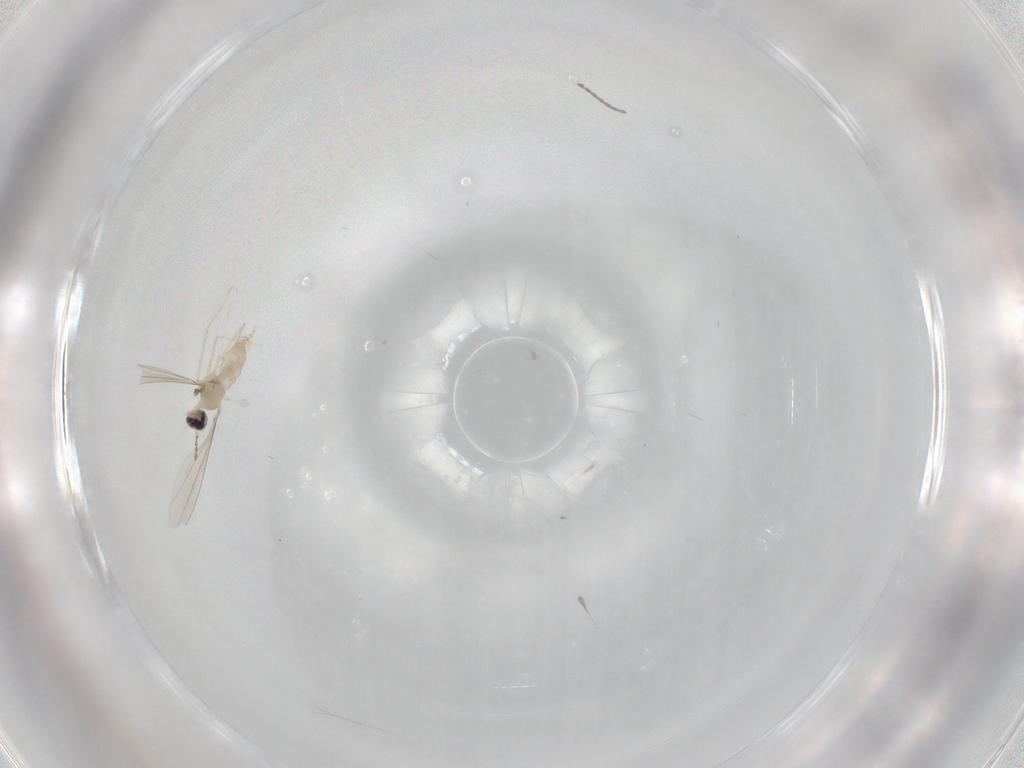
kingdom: Animalia
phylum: Arthropoda
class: Insecta
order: Diptera
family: Cecidomyiidae
